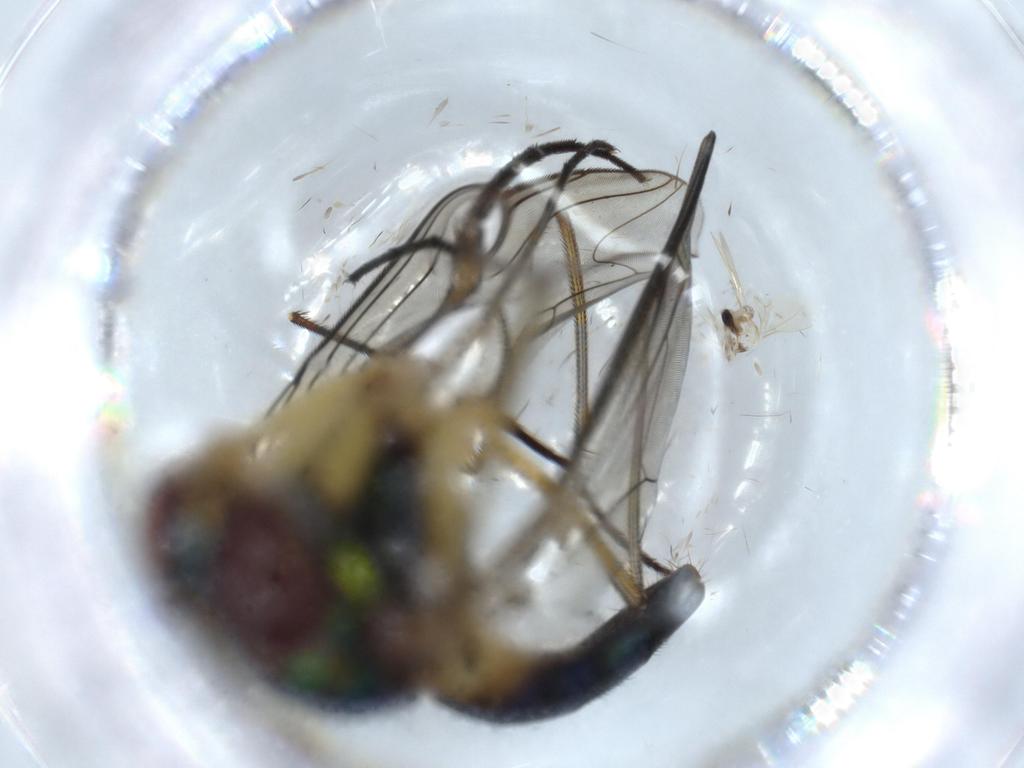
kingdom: Animalia
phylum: Arthropoda
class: Insecta
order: Diptera
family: Dolichopodidae
